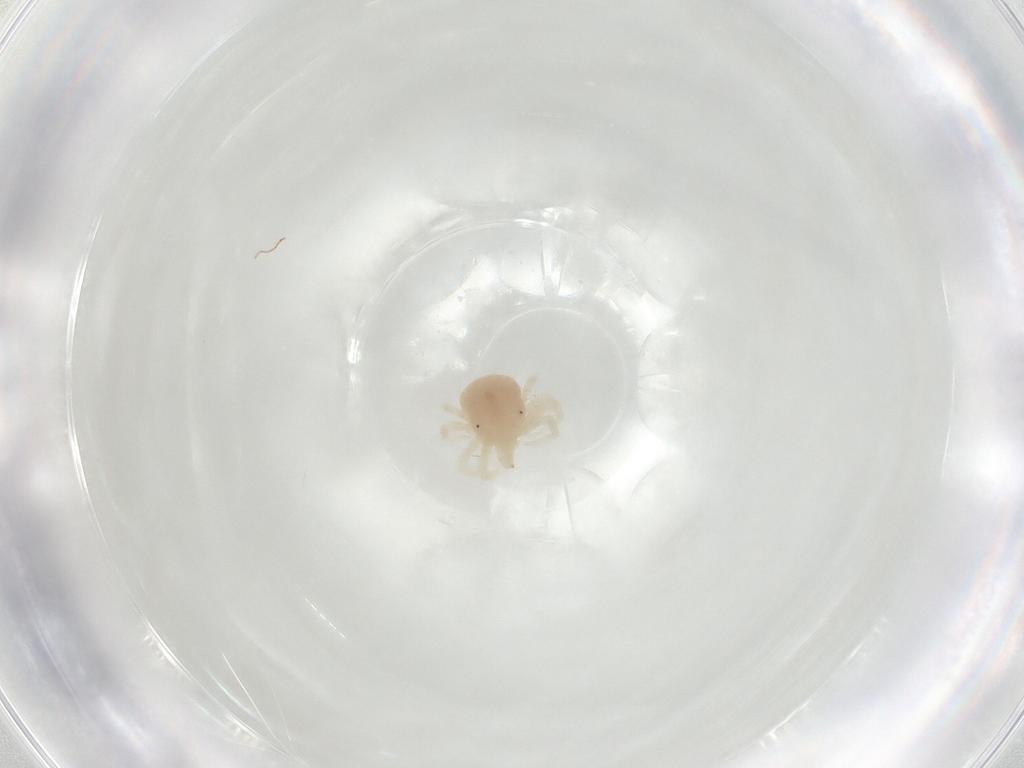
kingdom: Animalia
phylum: Arthropoda
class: Arachnida
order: Trombidiformes
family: Anystidae
